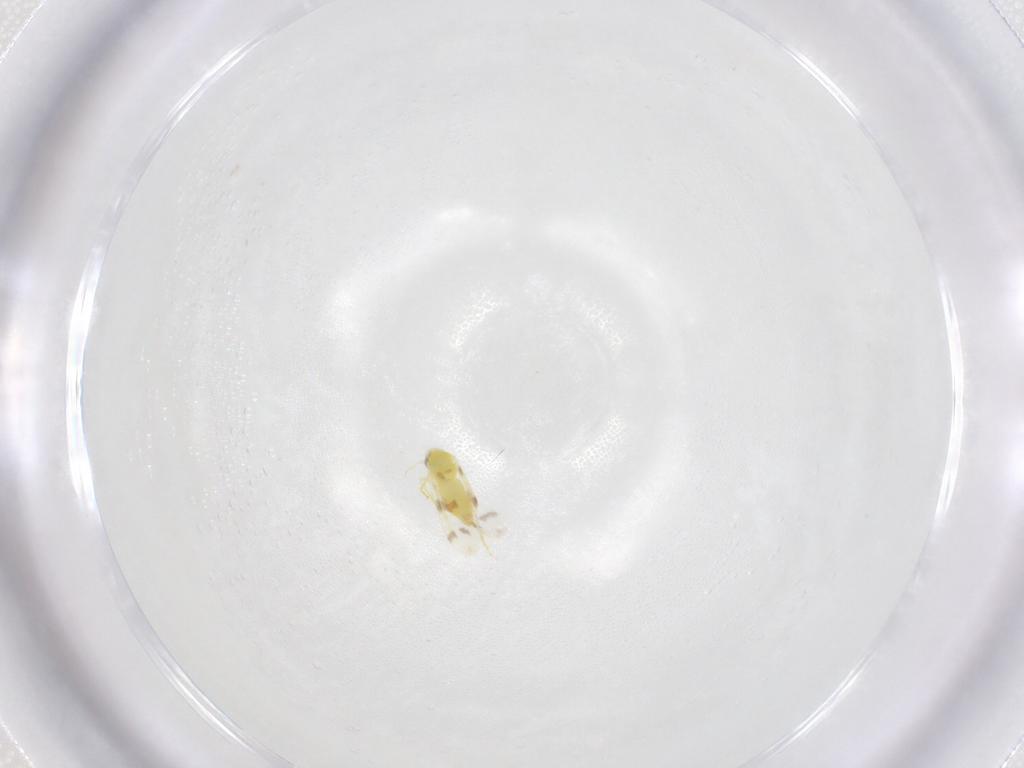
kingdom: Animalia
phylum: Arthropoda
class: Insecta
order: Hemiptera
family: Aleyrodidae
